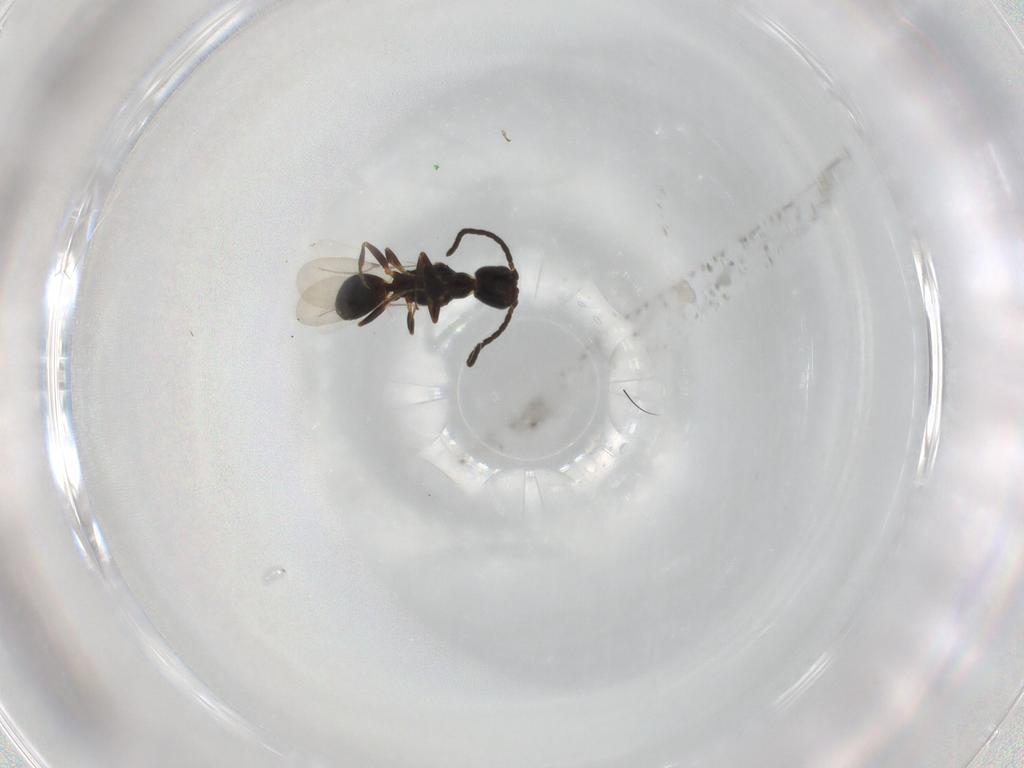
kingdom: Animalia
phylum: Arthropoda
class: Insecta
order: Hymenoptera
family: Bethylidae
